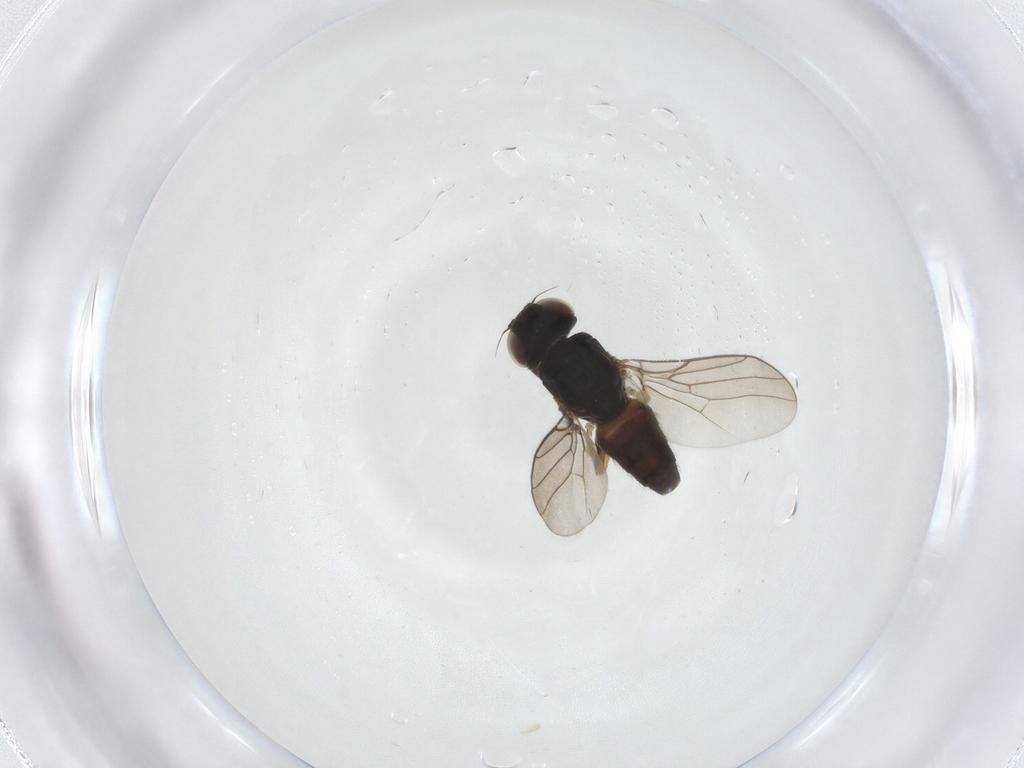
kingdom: Animalia
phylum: Arthropoda
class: Insecta
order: Diptera
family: Chloropidae
